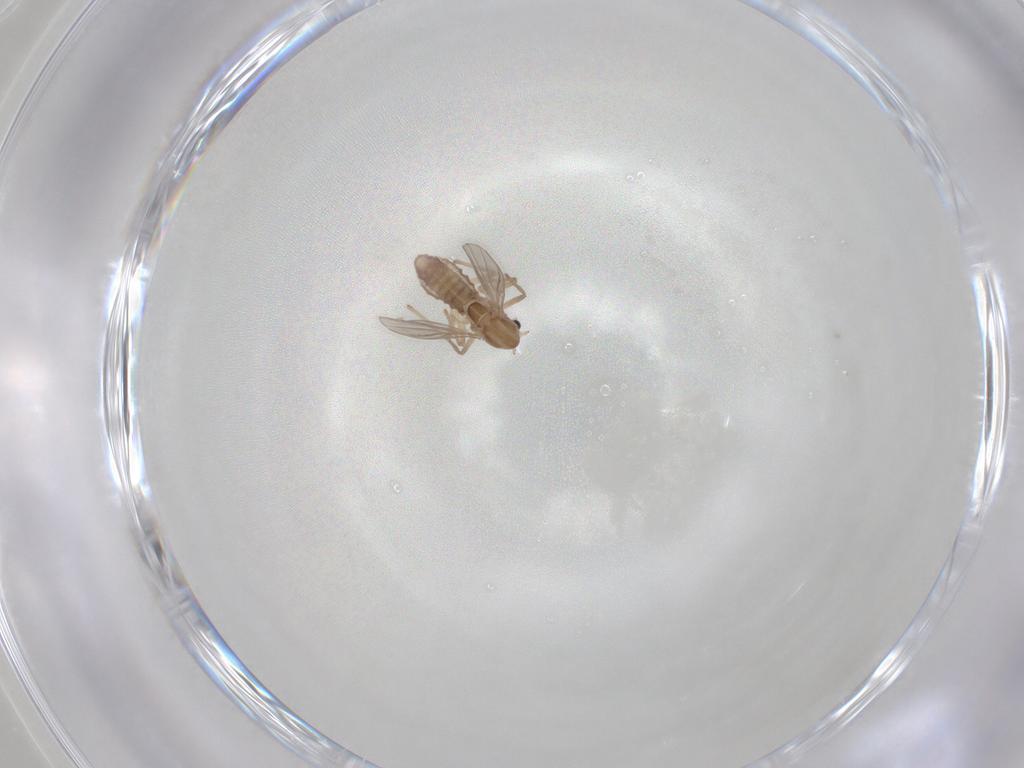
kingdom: Animalia
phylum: Arthropoda
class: Insecta
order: Diptera
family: Chironomidae
